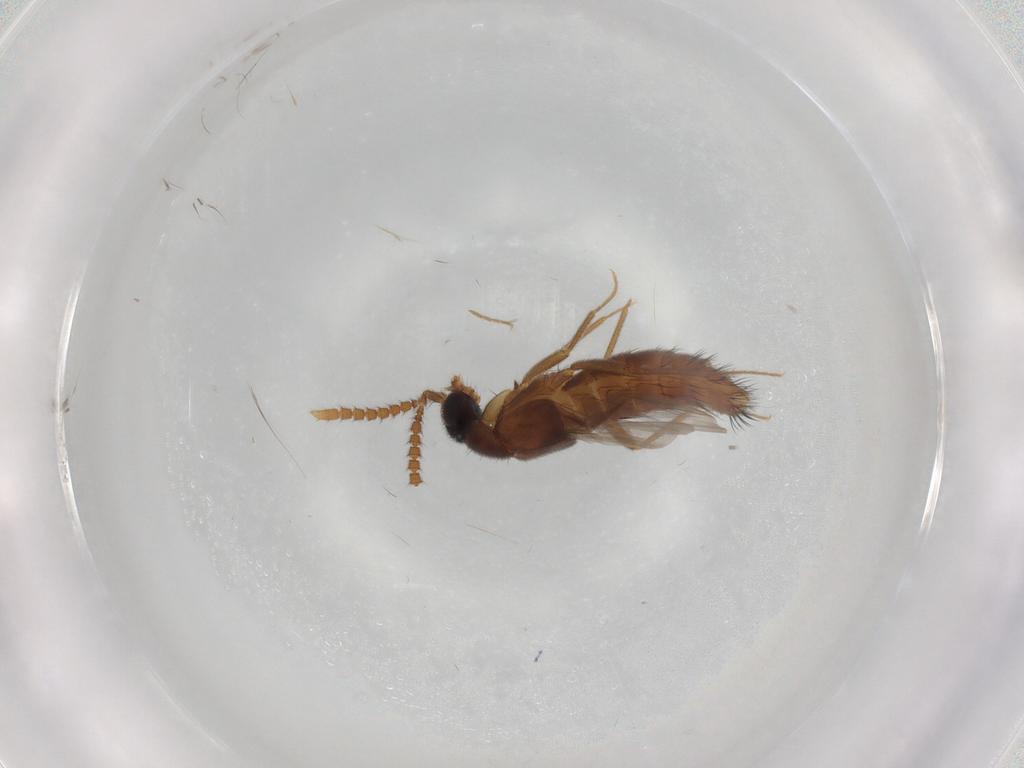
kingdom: Animalia
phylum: Arthropoda
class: Insecta
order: Coleoptera
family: Staphylinidae
